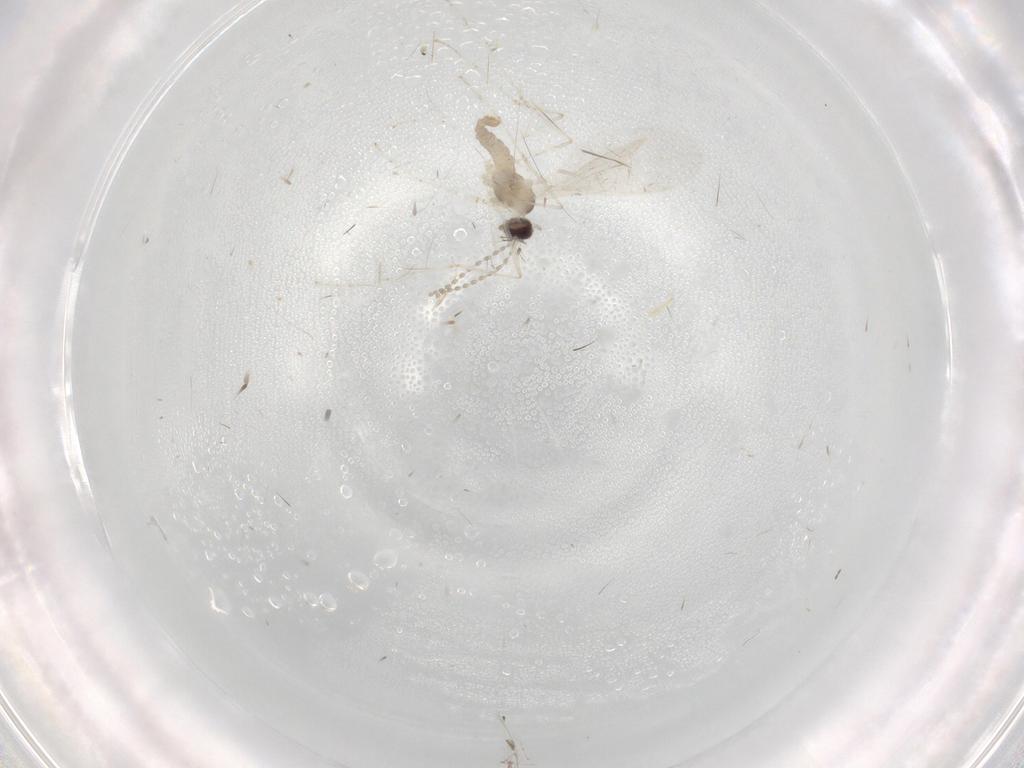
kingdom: Animalia
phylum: Arthropoda
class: Insecta
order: Diptera
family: Cecidomyiidae
